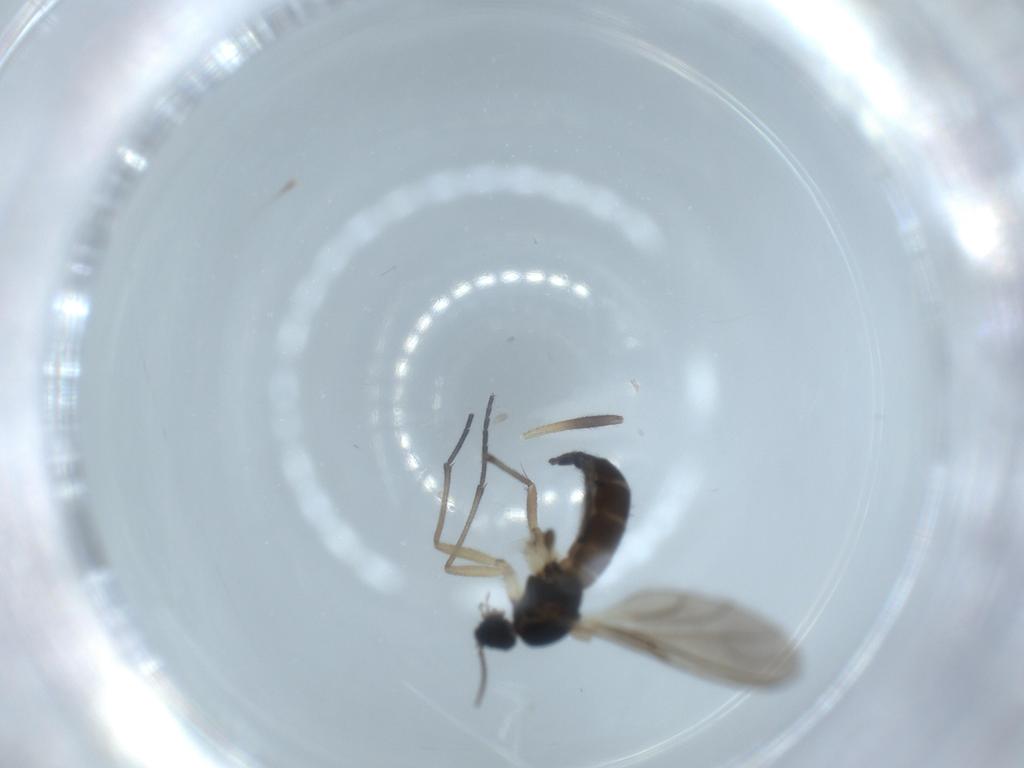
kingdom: Animalia
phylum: Arthropoda
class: Insecta
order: Diptera
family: Sciaridae
